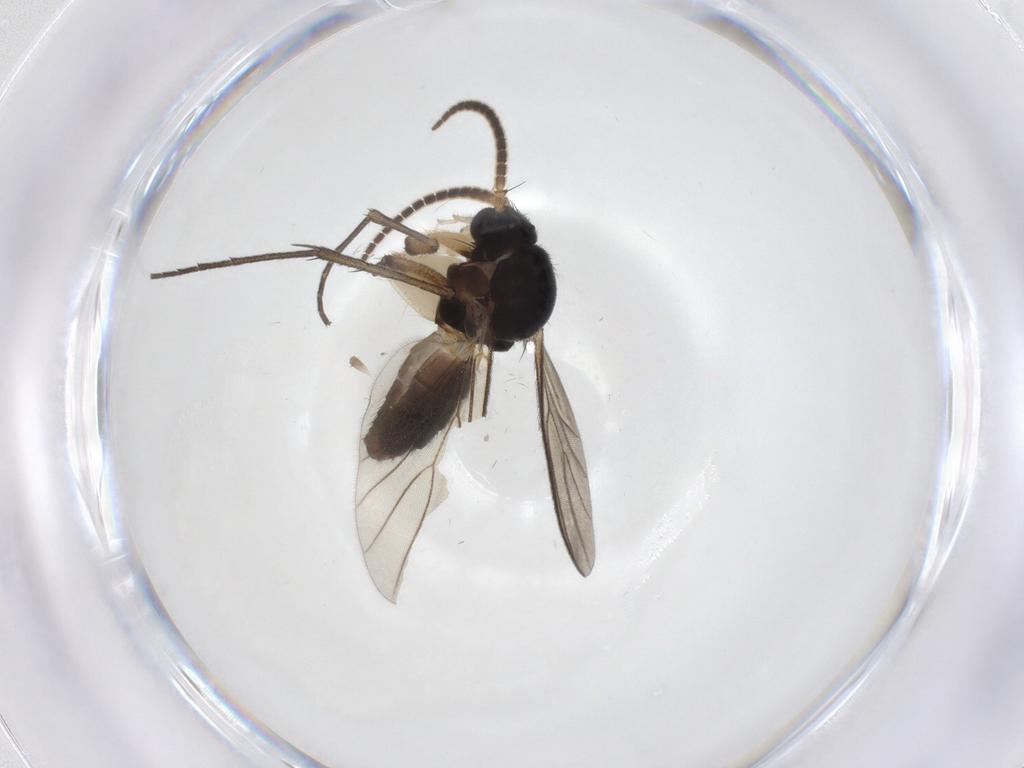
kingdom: Animalia
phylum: Arthropoda
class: Insecta
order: Diptera
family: Mycetophilidae
